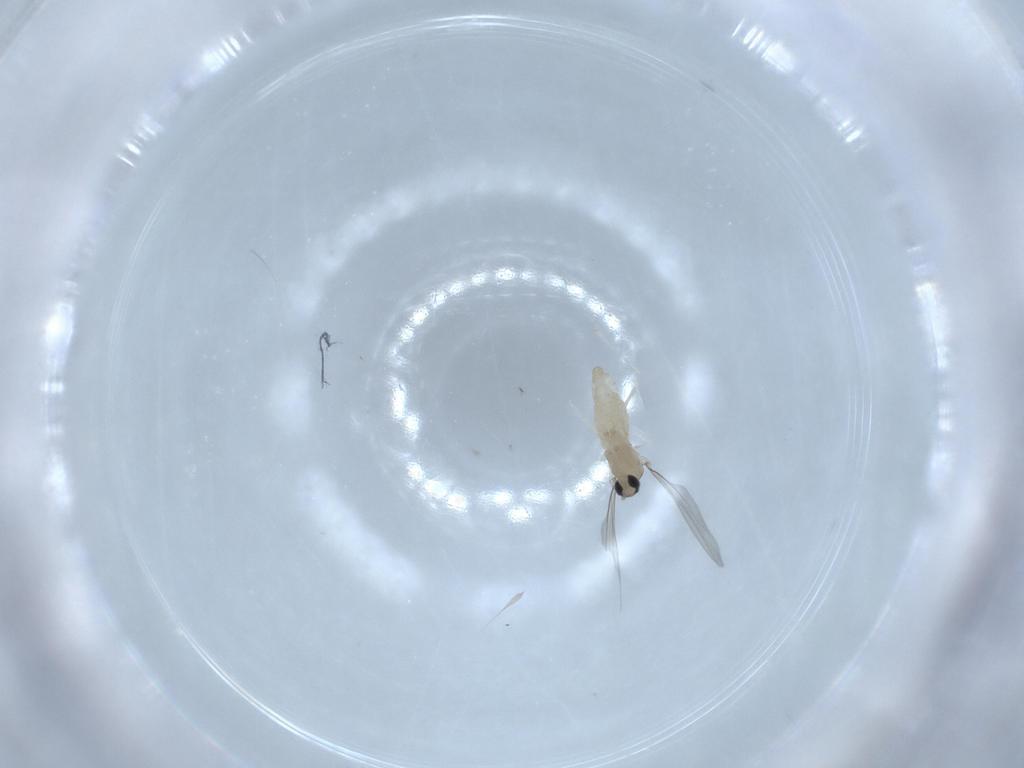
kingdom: Animalia
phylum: Arthropoda
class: Insecta
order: Diptera
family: Cecidomyiidae
